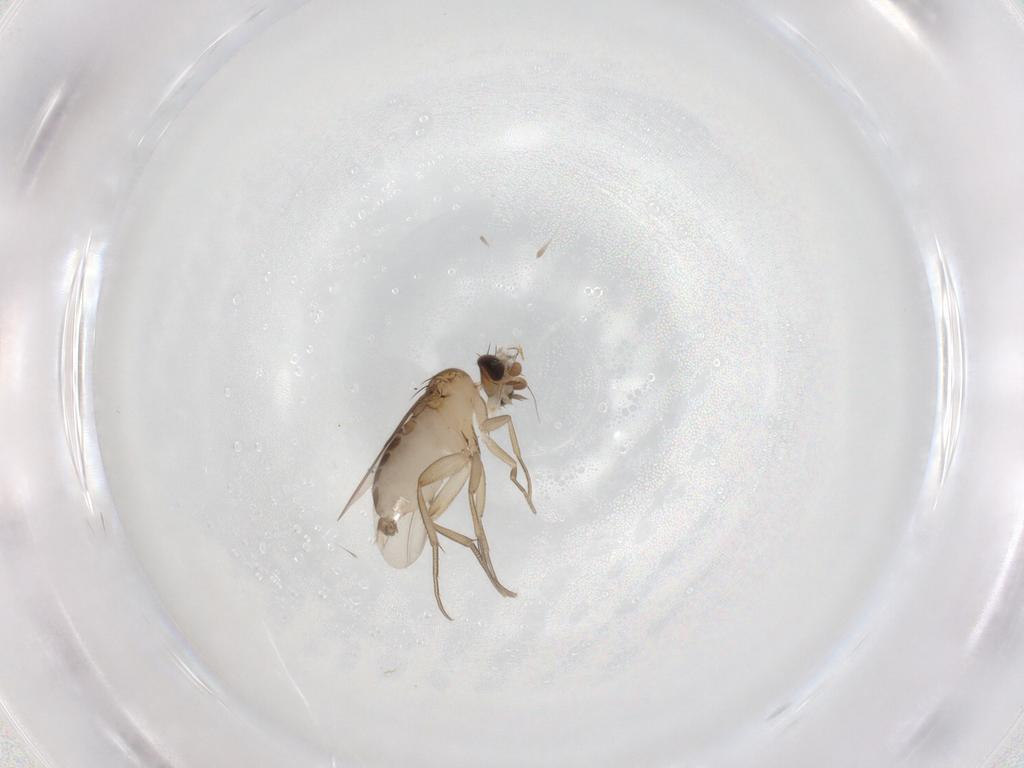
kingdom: Animalia
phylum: Arthropoda
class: Insecta
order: Diptera
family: Phoridae
